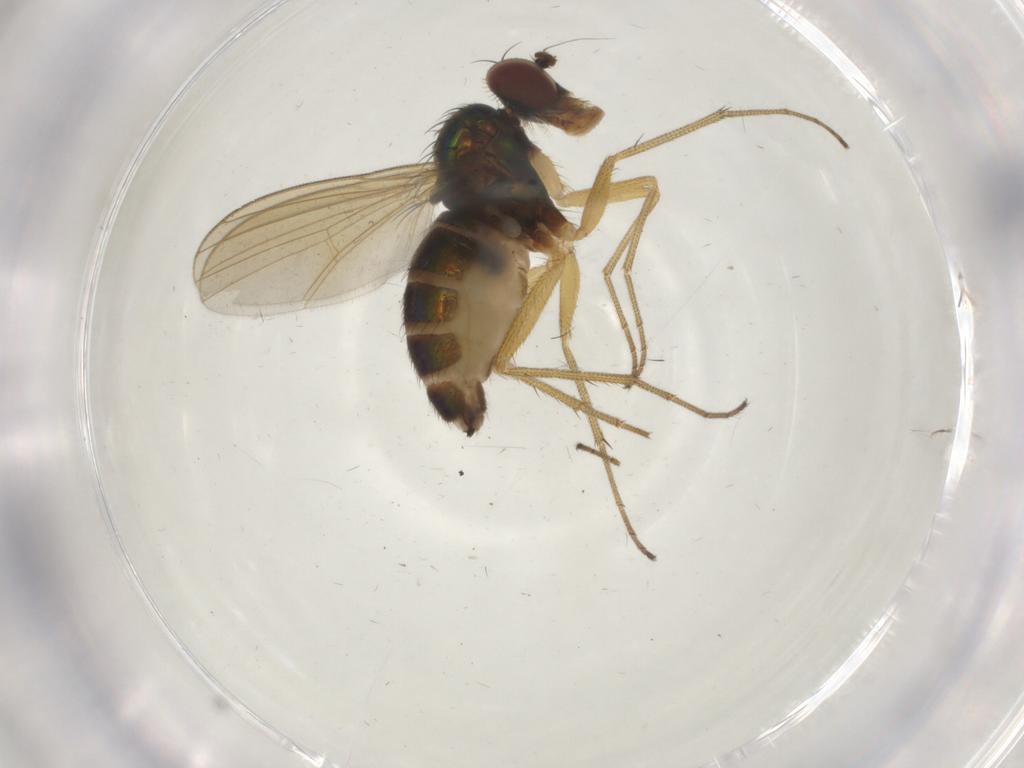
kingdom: Animalia
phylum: Arthropoda
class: Insecta
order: Diptera
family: Dolichopodidae
